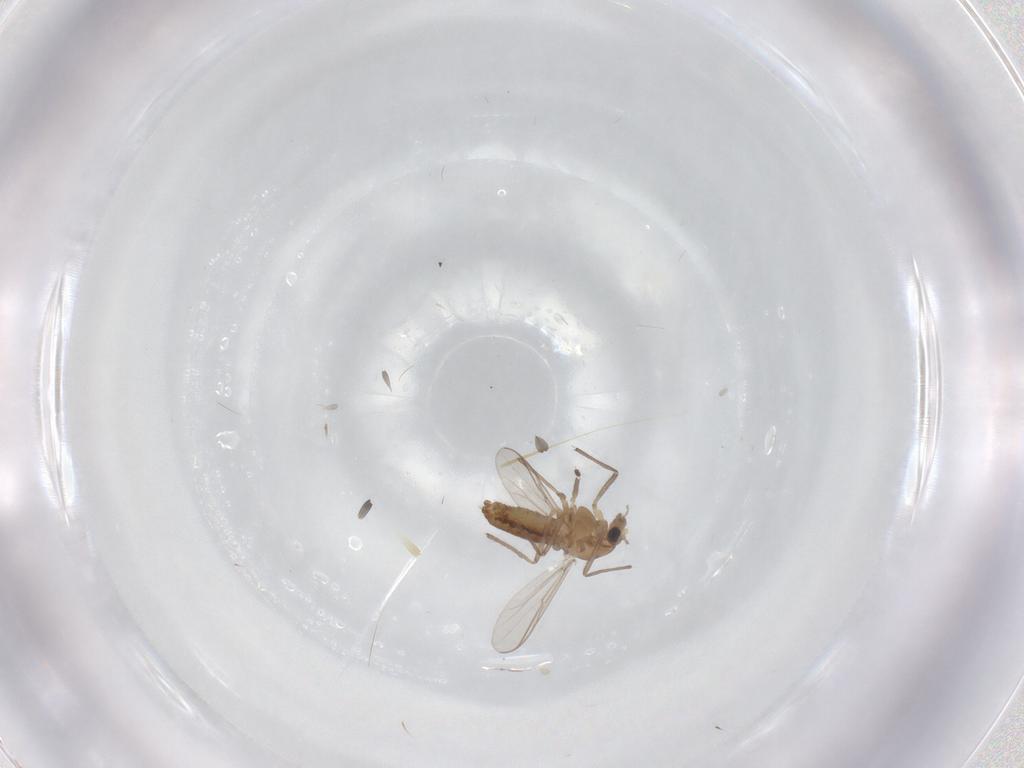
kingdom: Animalia
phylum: Arthropoda
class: Insecta
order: Diptera
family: Chironomidae
